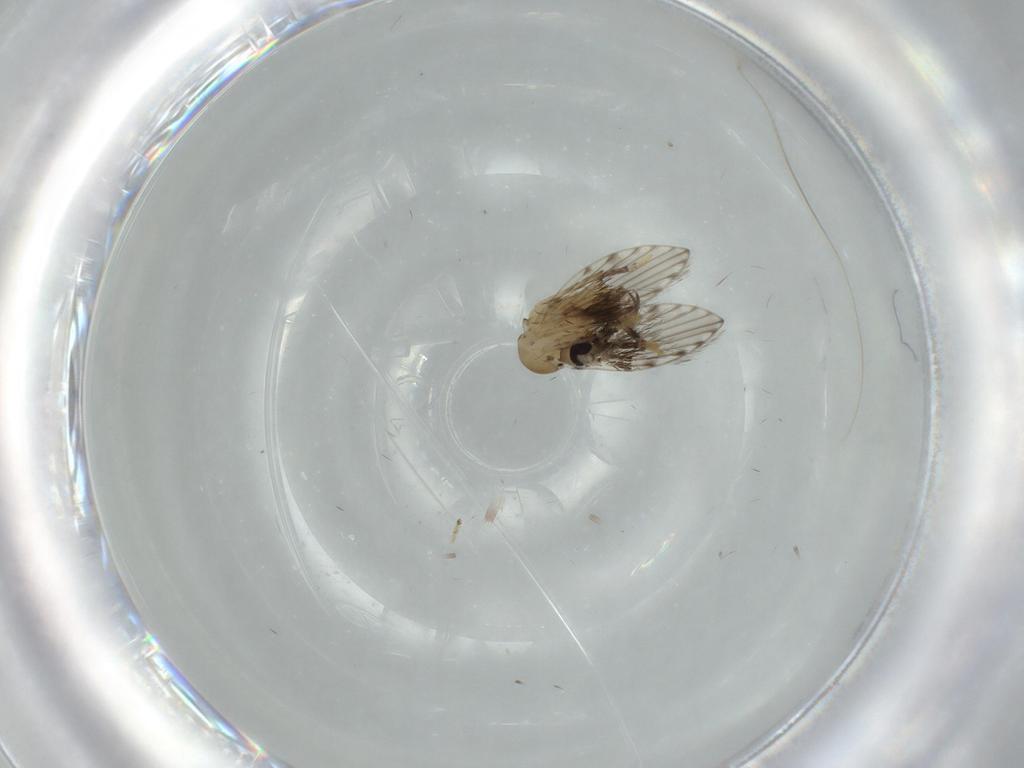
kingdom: Animalia
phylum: Arthropoda
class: Insecta
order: Diptera
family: Psychodidae
